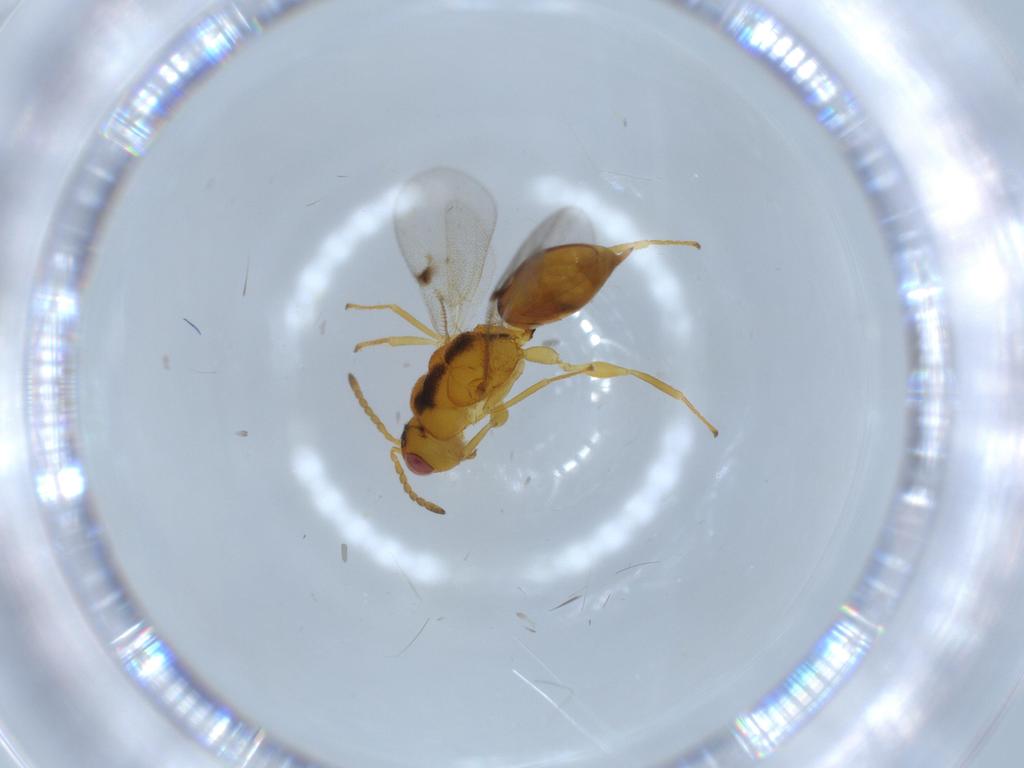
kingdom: Animalia
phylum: Arthropoda
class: Insecta
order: Hymenoptera
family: Eurytomidae
